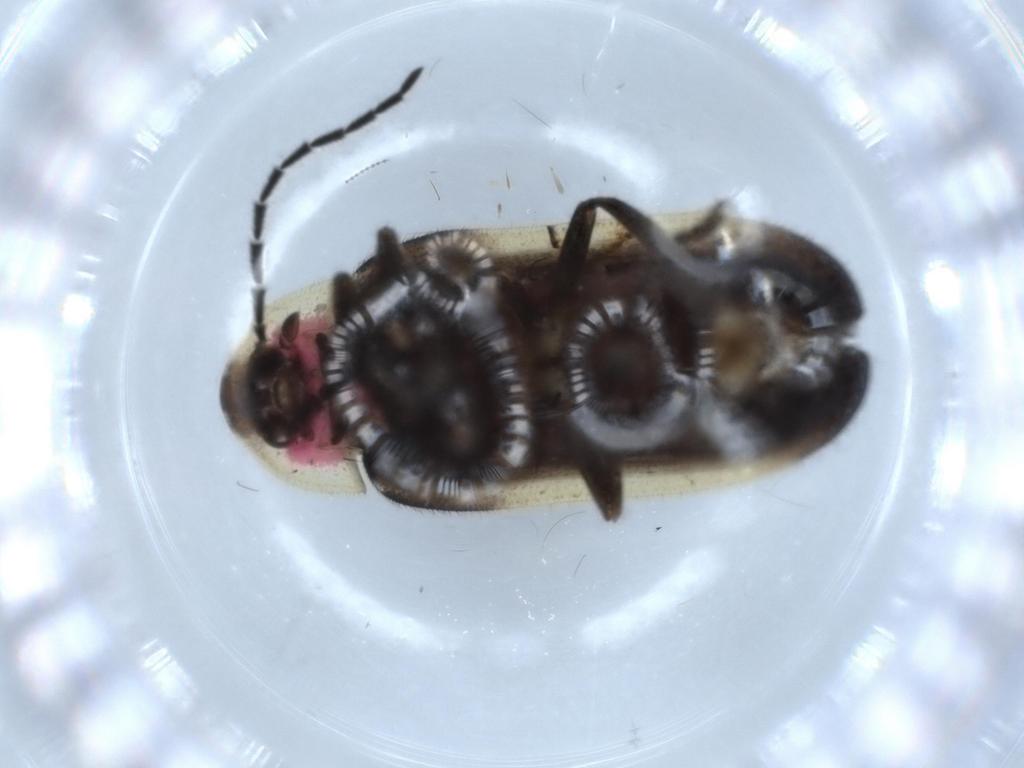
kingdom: Animalia
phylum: Arthropoda
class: Insecta
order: Coleoptera
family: Lampyridae
